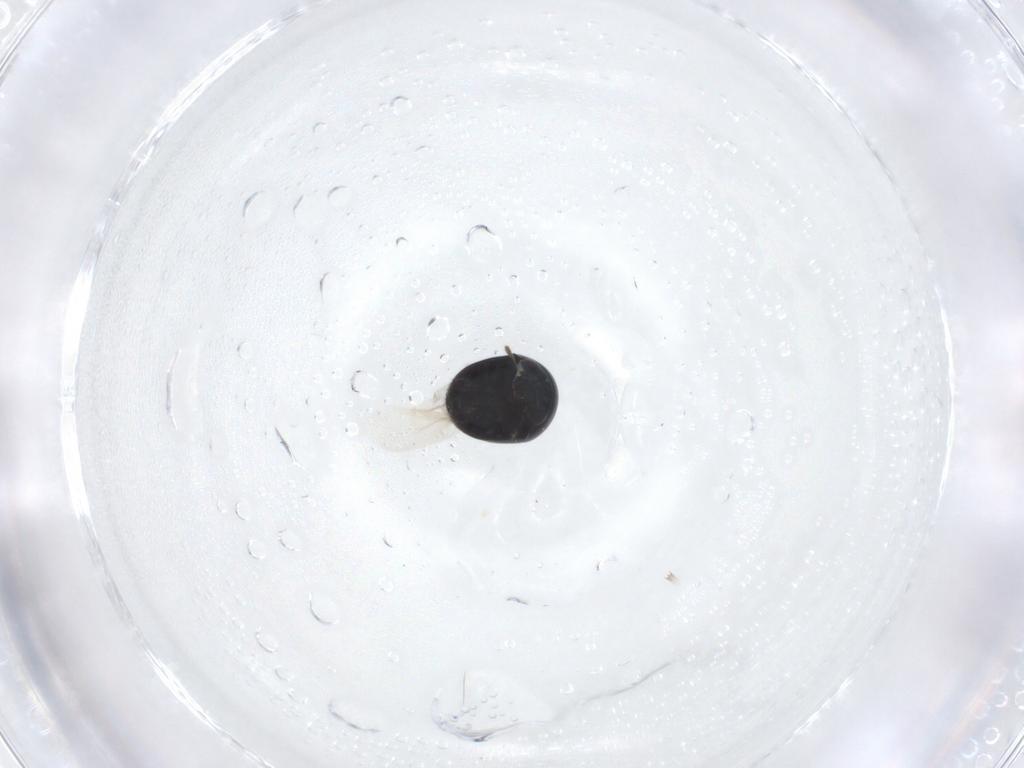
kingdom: Animalia
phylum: Arthropoda
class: Insecta
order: Coleoptera
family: Cybocephalidae
